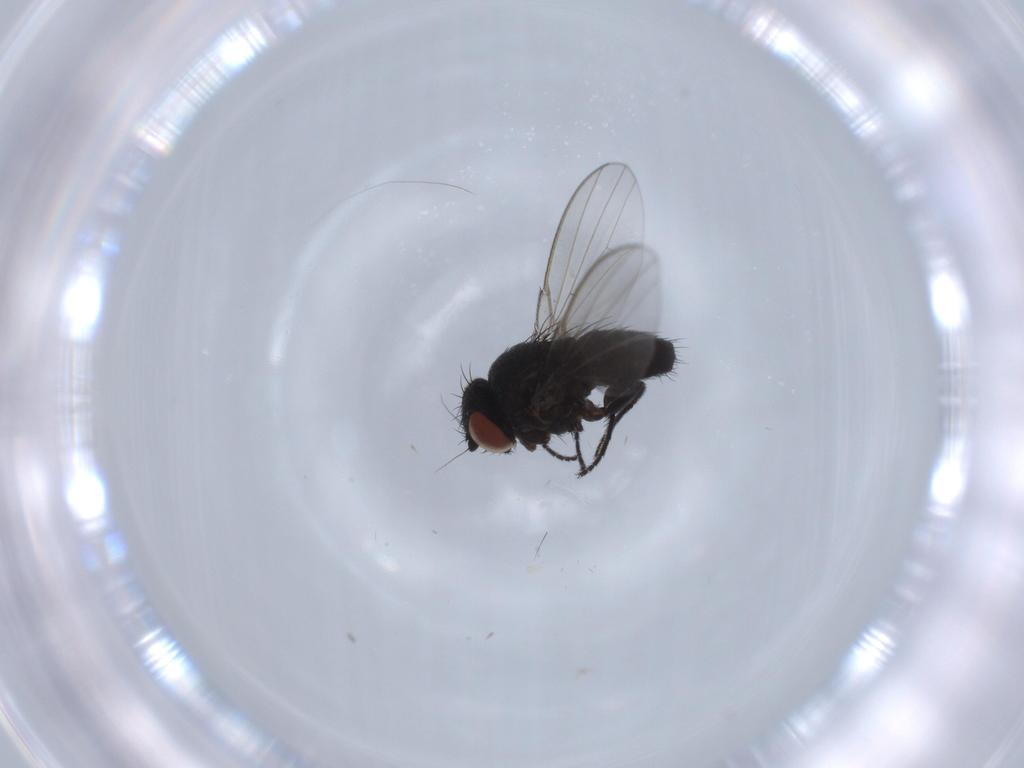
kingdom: Animalia
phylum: Arthropoda
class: Insecta
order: Diptera
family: Milichiidae
